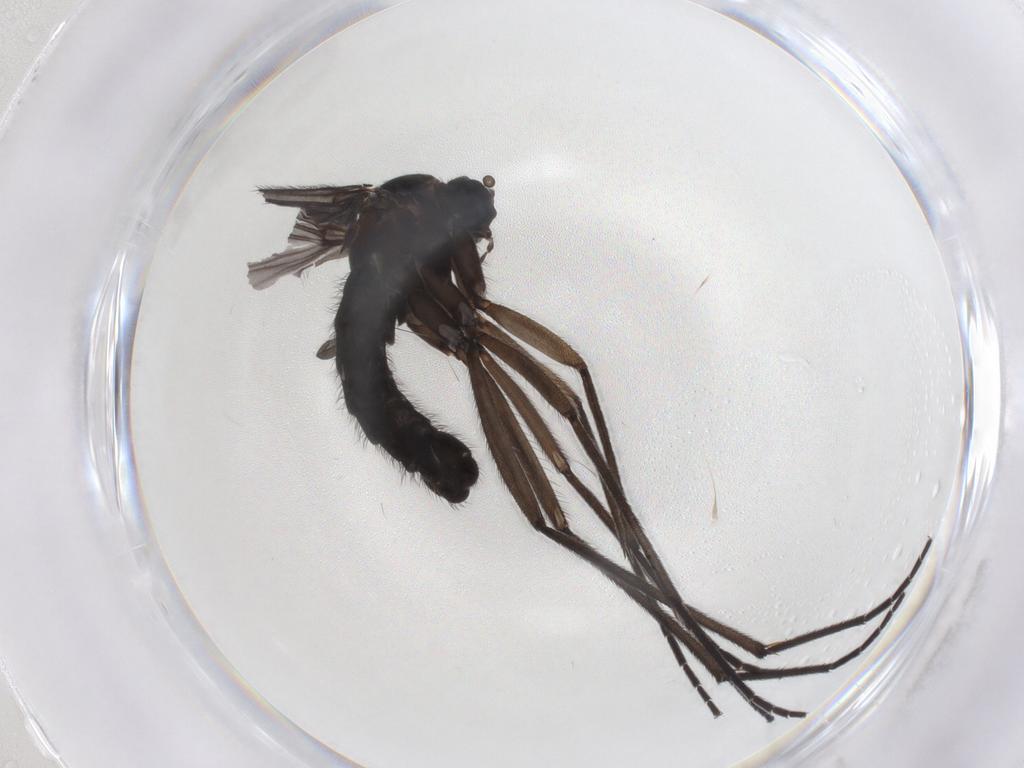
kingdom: Animalia
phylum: Arthropoda
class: Insecta
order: Diptera
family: Sciaridae
